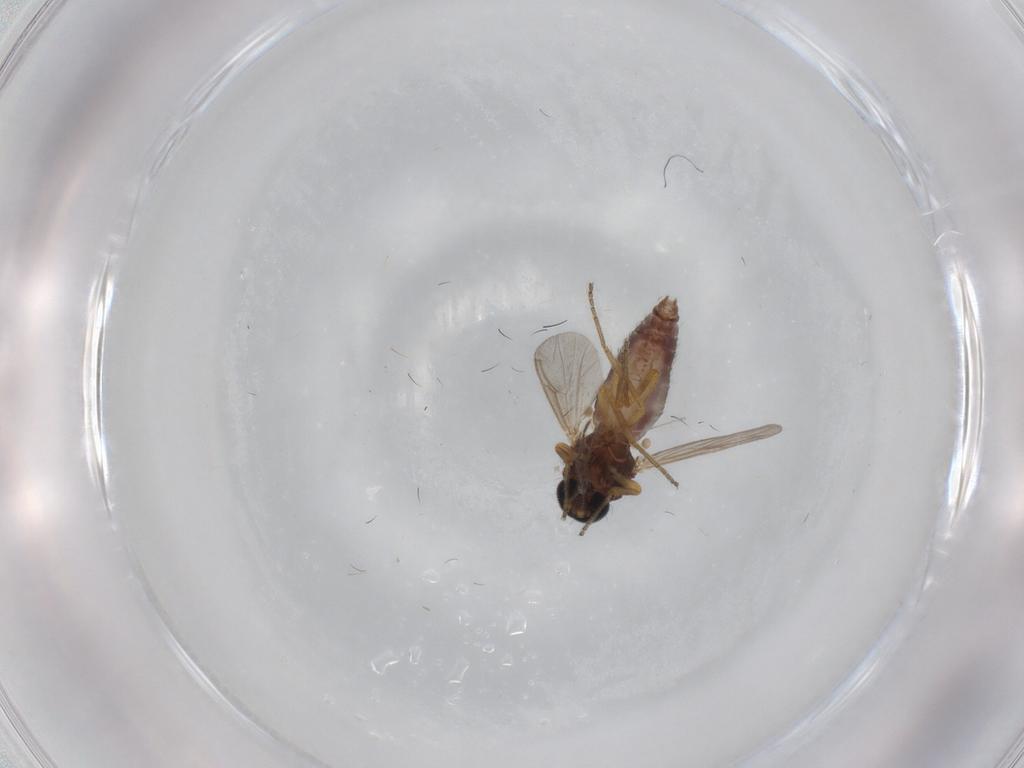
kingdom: Animalia
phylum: Arthropoda
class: Insecta
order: Diptera
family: Ceratopogonidae
